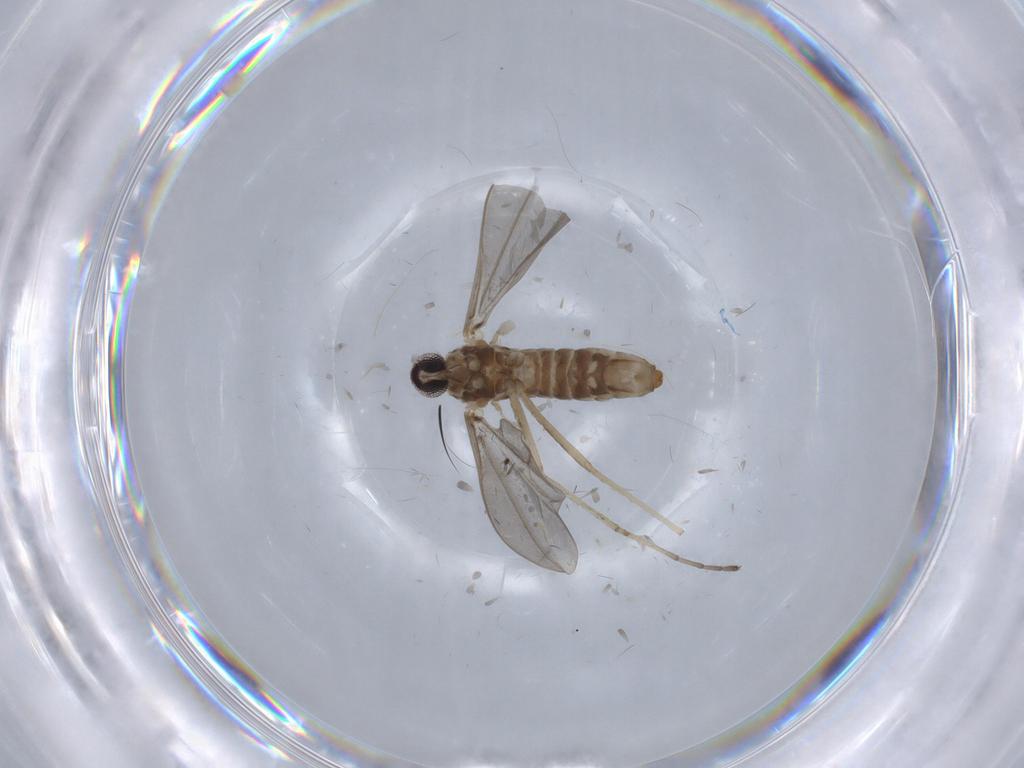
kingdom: Animalia
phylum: Arthropoda
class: Insecta
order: Diptera
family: Cecidomyiidae
